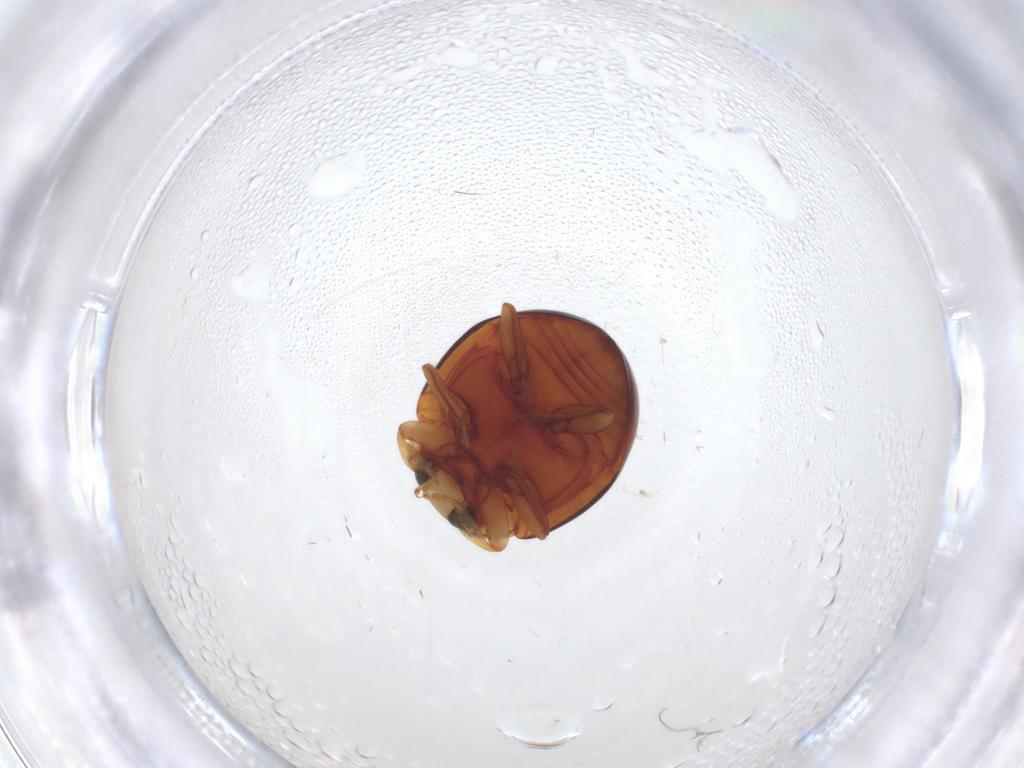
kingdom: Animalia
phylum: Arthropoda
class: Insecta
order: Coleoptera
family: Coccinellidae
